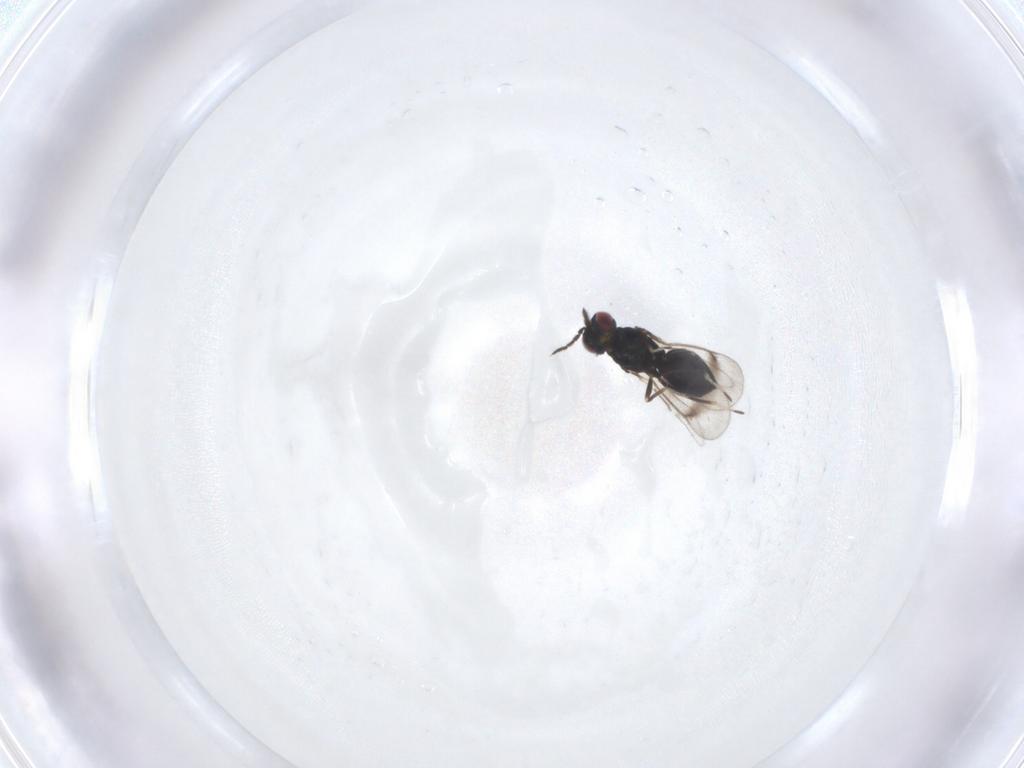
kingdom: Animalia
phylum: Arthropoda
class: Insecta
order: Hymenoptera
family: Eulophidae
